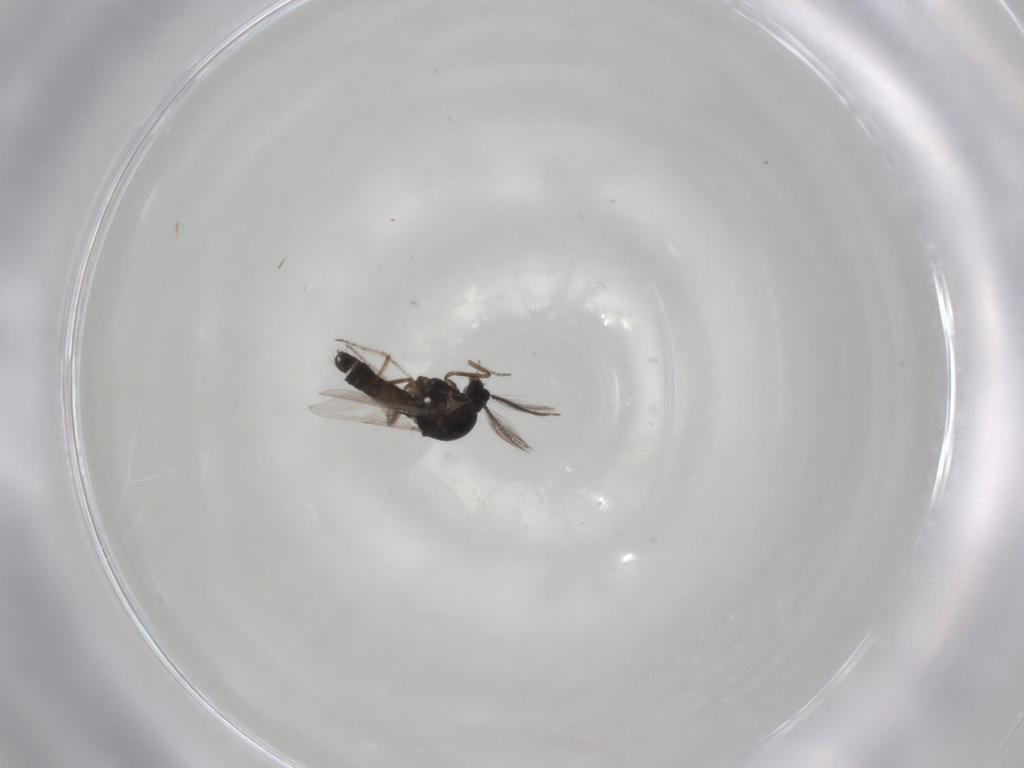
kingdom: Animalia
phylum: Arthropoda
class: Insecta
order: Diptera
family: Ceratopogonidae
